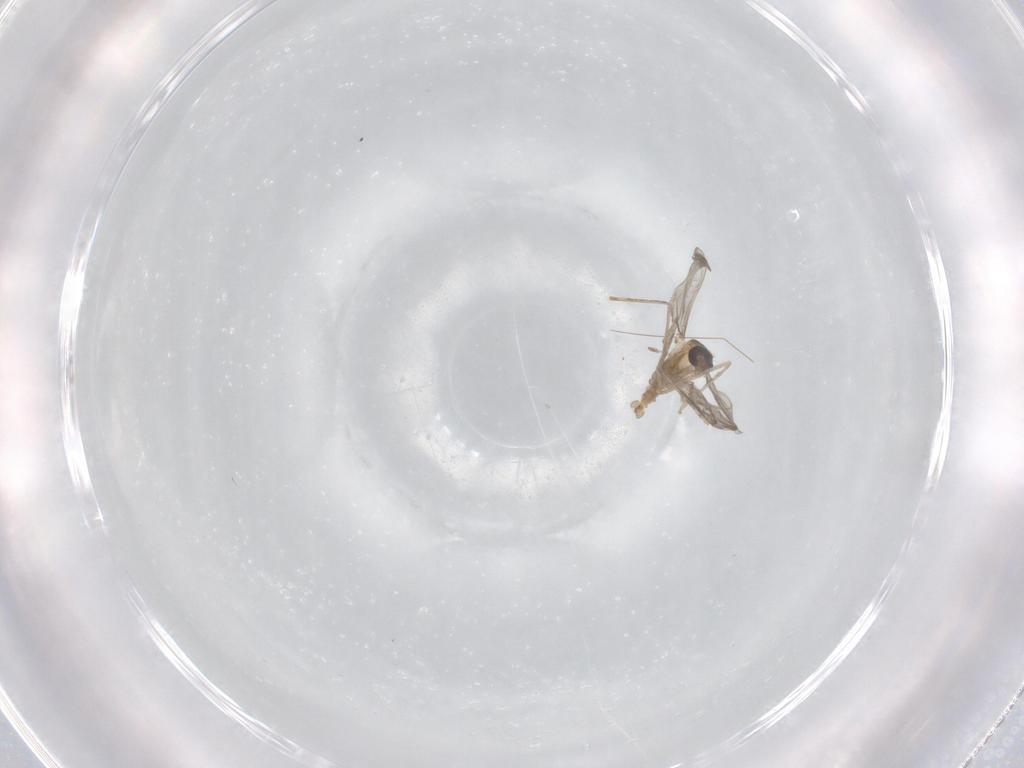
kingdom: Animalia
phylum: Arthropoda
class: Insecta
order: Diptera
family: Cecidomyiidae
